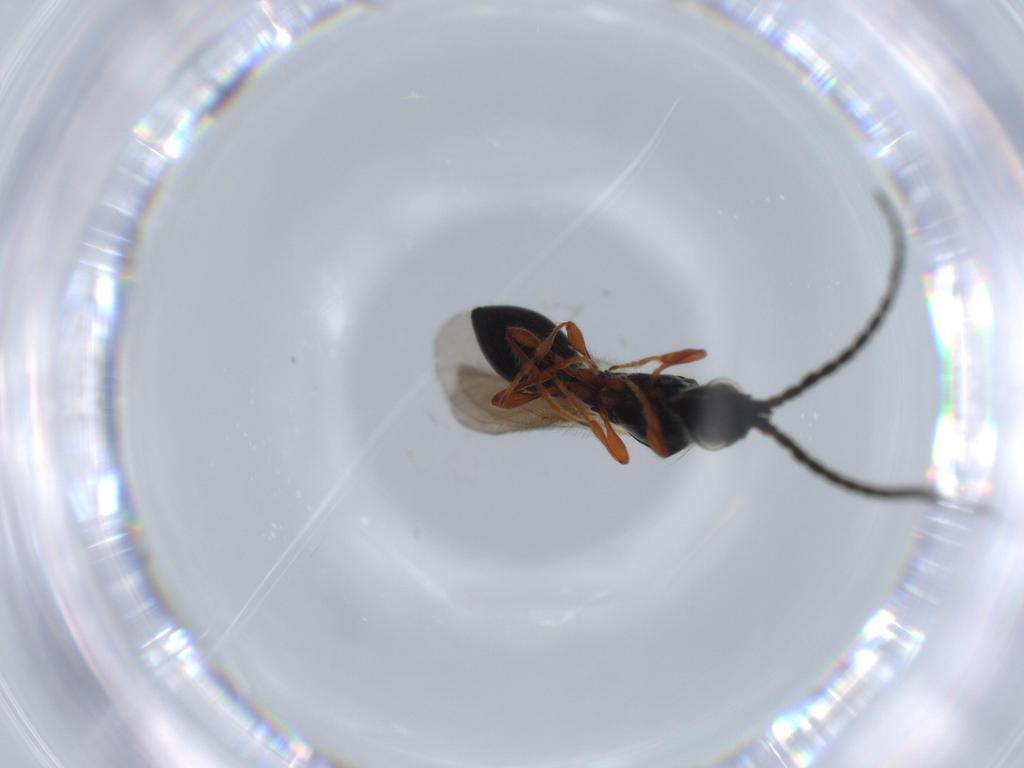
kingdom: Animalia
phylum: Arthropoda
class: Insecta
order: Hymenoptera
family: Diapriidae
